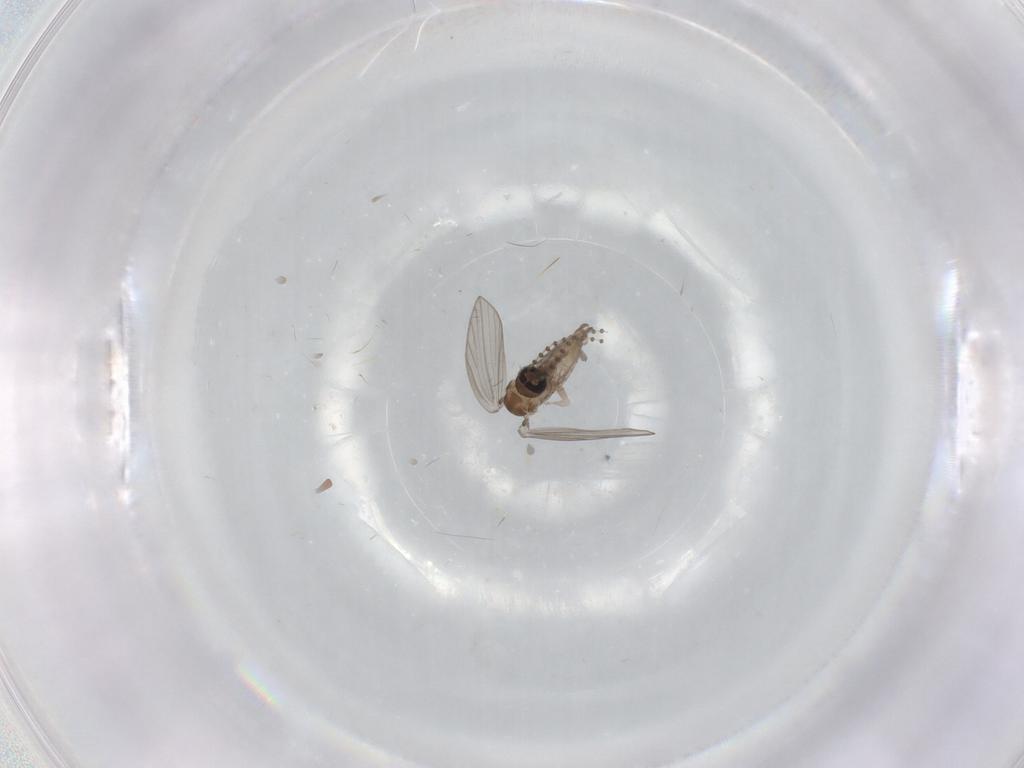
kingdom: Animalia
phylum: Arthropoda
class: Insecta
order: Diptera
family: Psychodidae
